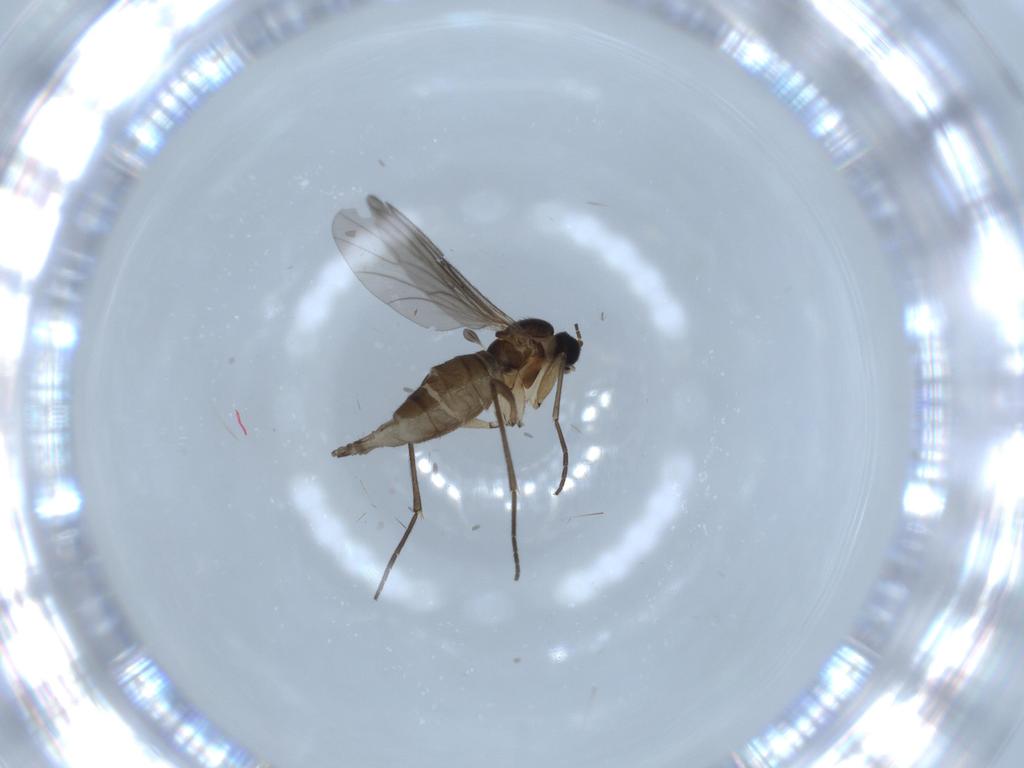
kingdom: Animalia
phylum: Arthropoda
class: Insecta
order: Diptera
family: Sciaridae
